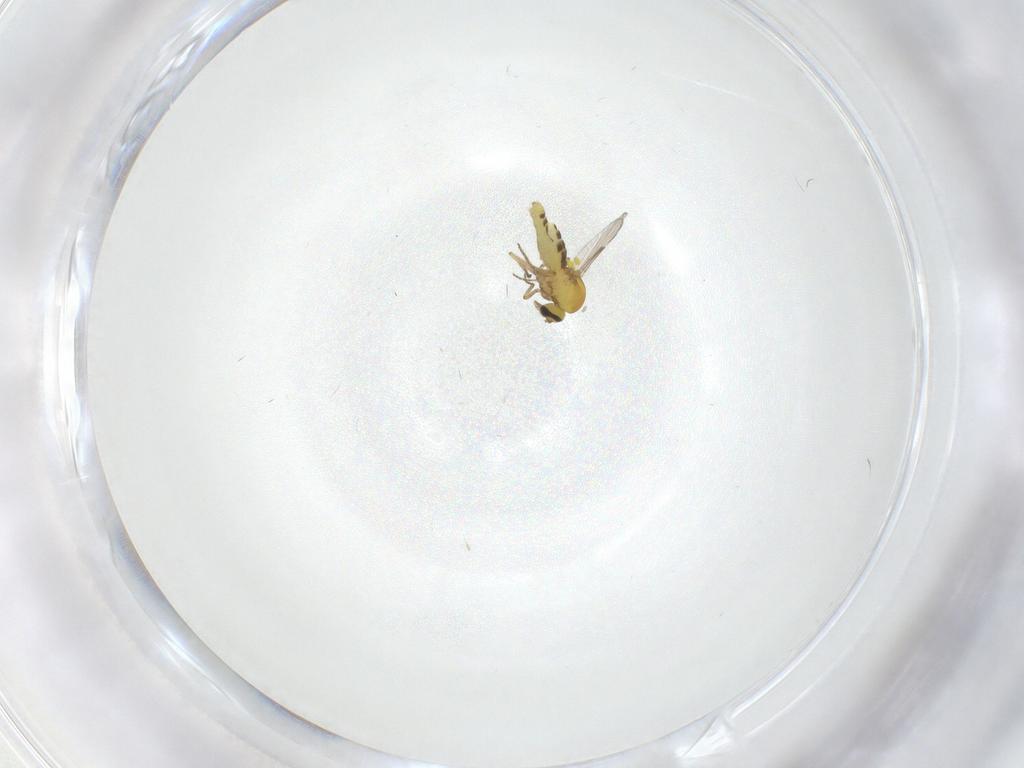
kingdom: Animalia
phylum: Arthropoda
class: Insecta
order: Diptera
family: Ceratopogonidae
